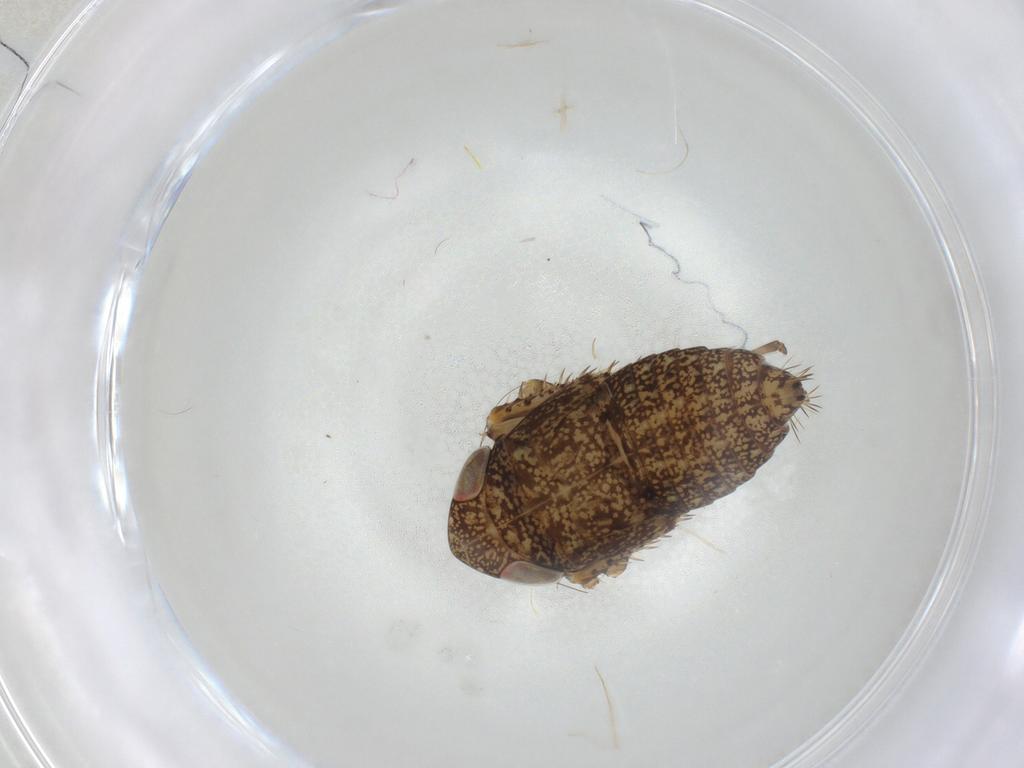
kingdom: Animalia
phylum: Arthropoda
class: Insecta
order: Hemiptera
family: Cicadellidae
